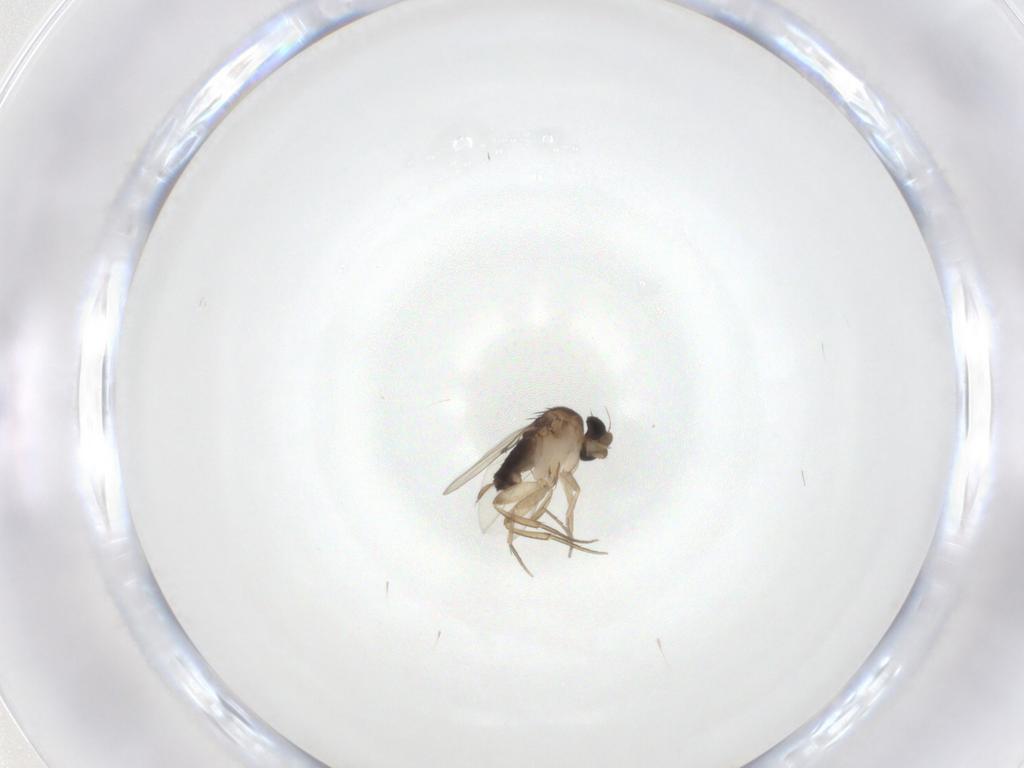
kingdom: Animalia
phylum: Arthropoda
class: Insecta
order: Diptera
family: Phoridae
